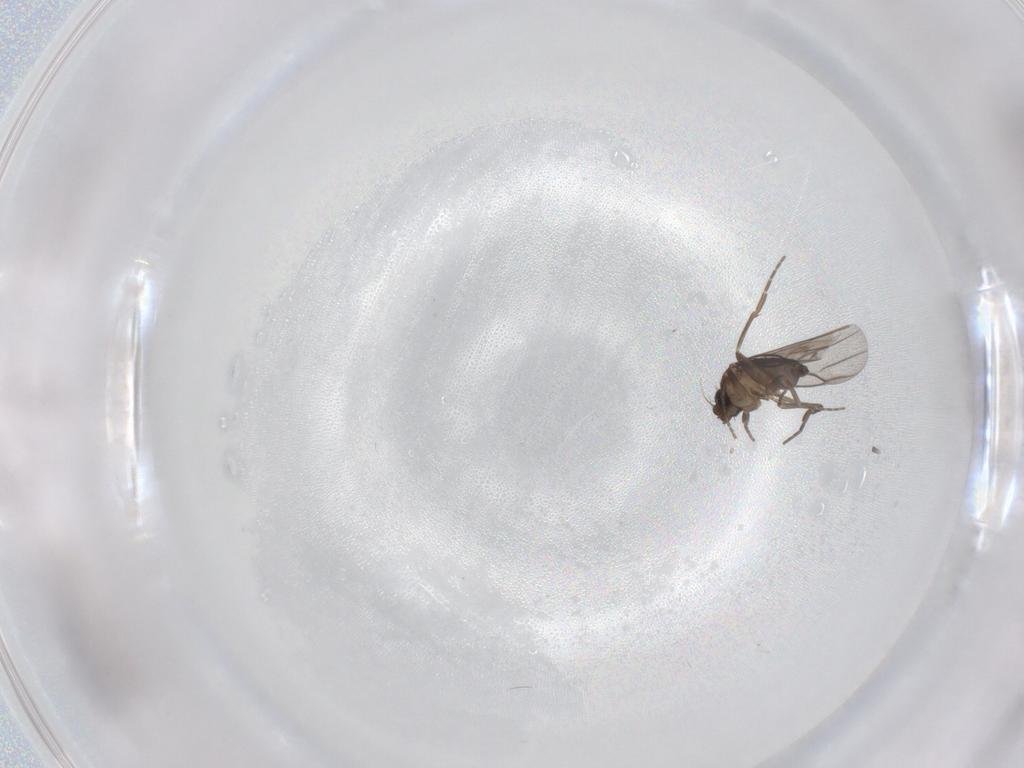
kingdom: Animalia
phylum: Arthropoda
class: Insecta
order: Diptera
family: Phoridae
